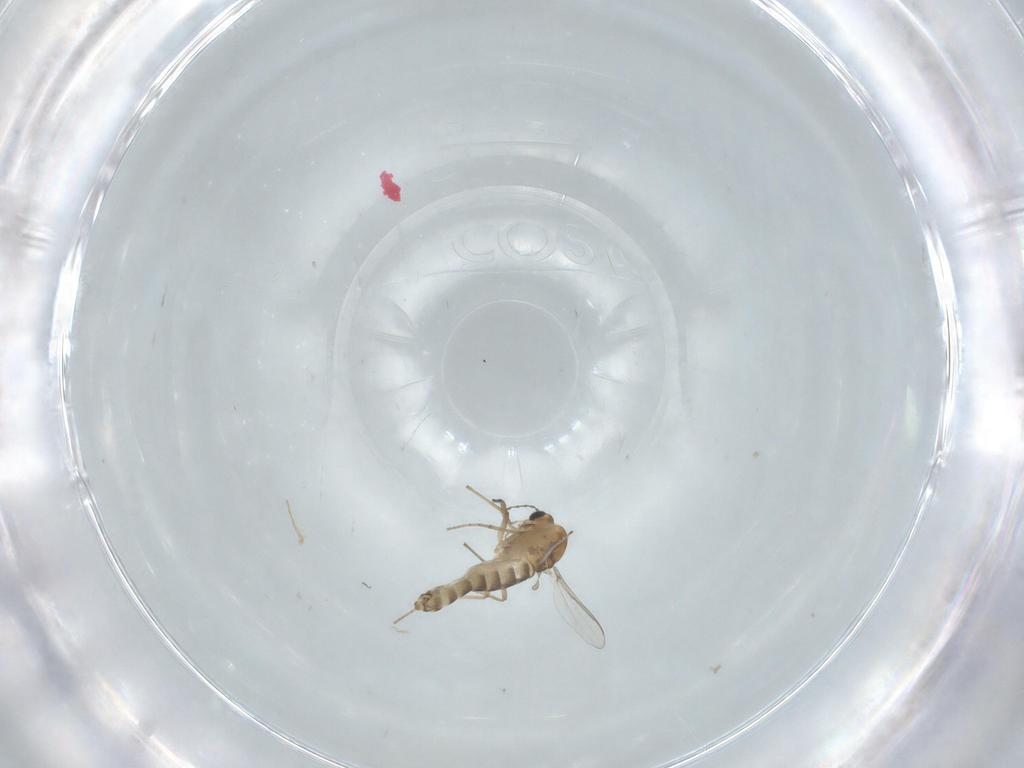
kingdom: Animalia
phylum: Arthropoda
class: Insecta
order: Diptera
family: Chironomidae
